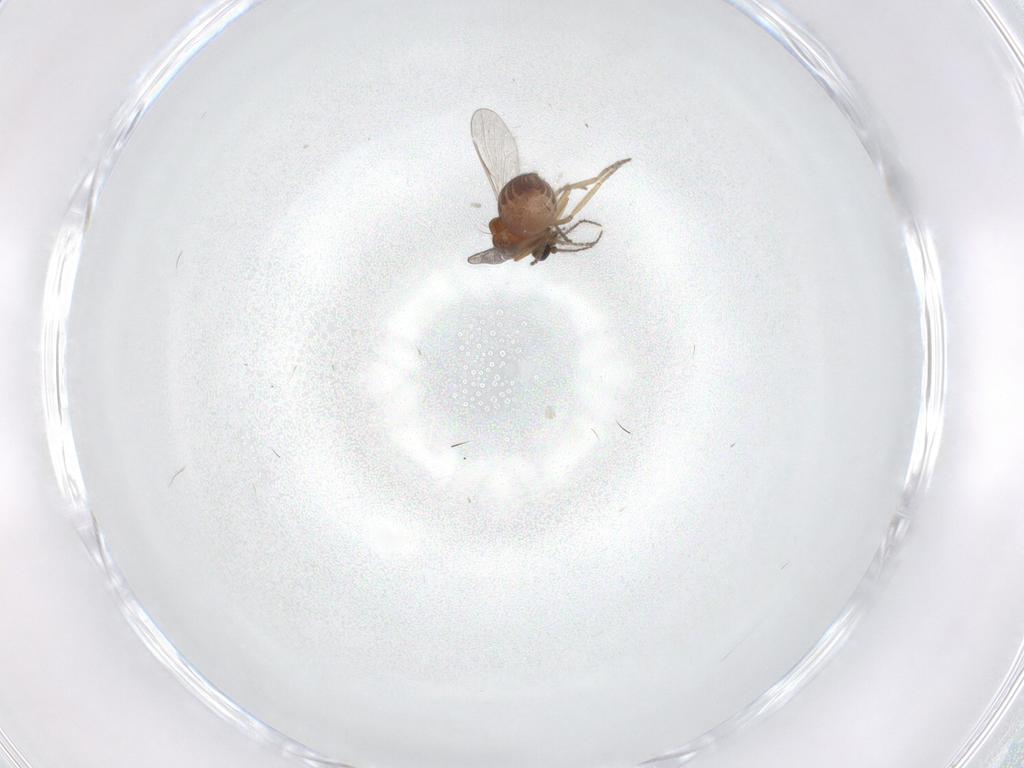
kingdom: Animalia
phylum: Arthropoda
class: Insecta
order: Diptera
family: Ceratopogonidae
